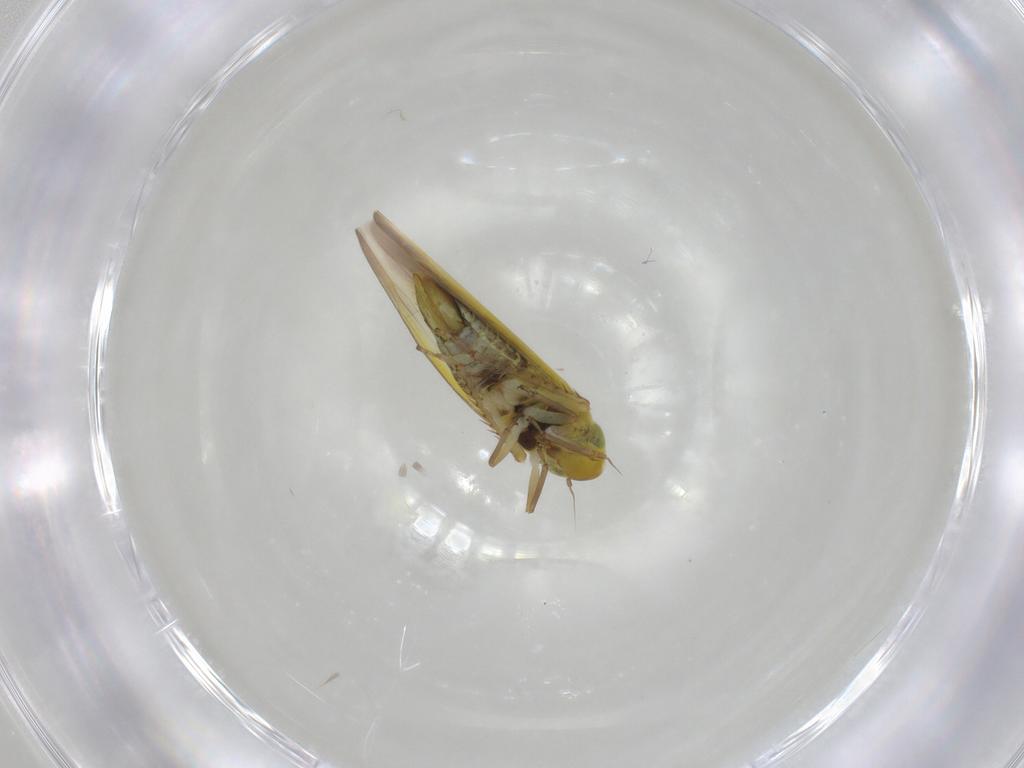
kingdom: Animalia
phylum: Arthropoda
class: Insecta
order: Hemiptera
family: Cicadellidae
